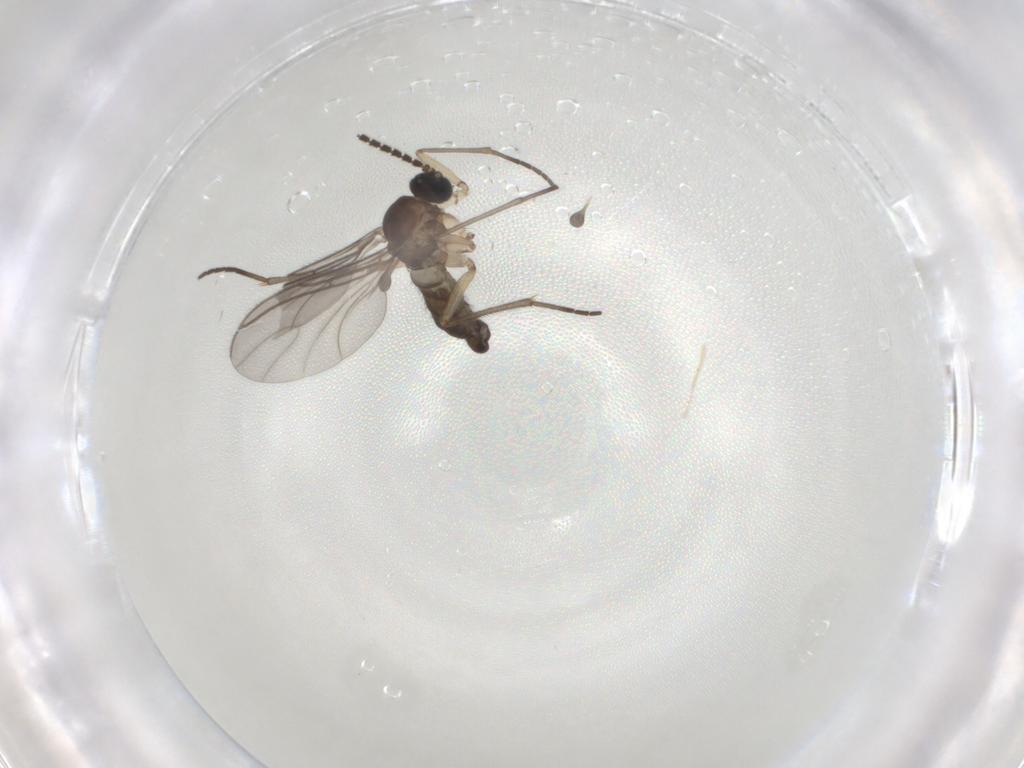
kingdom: Animalia
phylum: Arthropoda
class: Insecta
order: Diptera
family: Sciaridae
